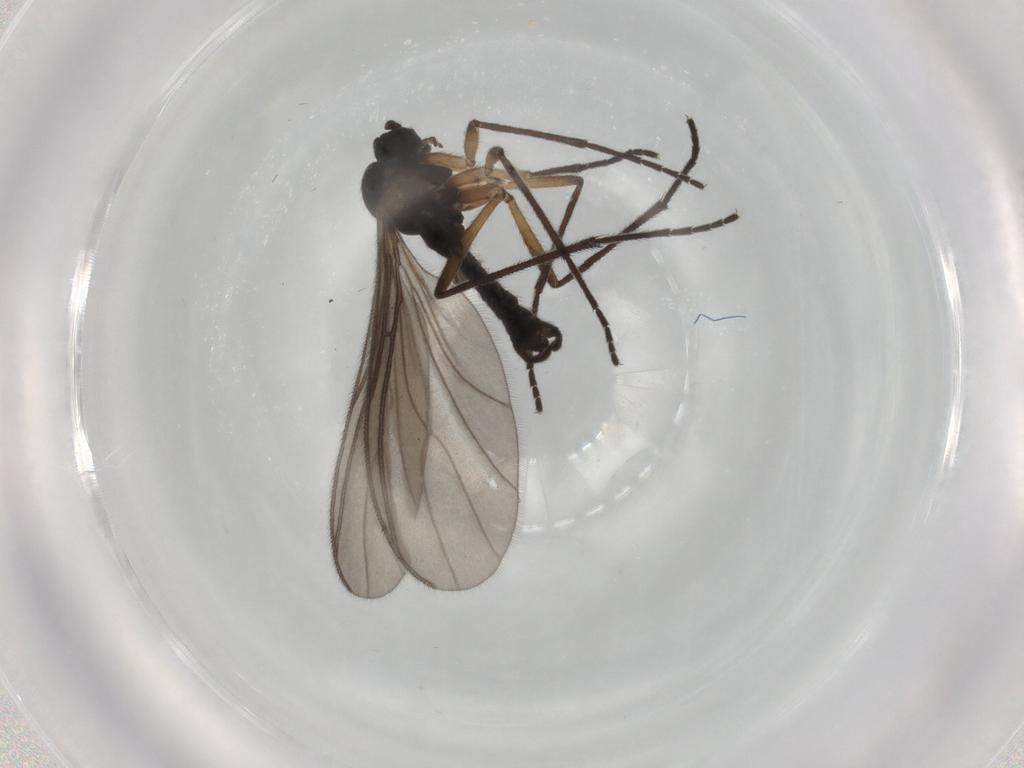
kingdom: Animalia
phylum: Arthropoda
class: Insecta
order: Diptera
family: Sciaridae
